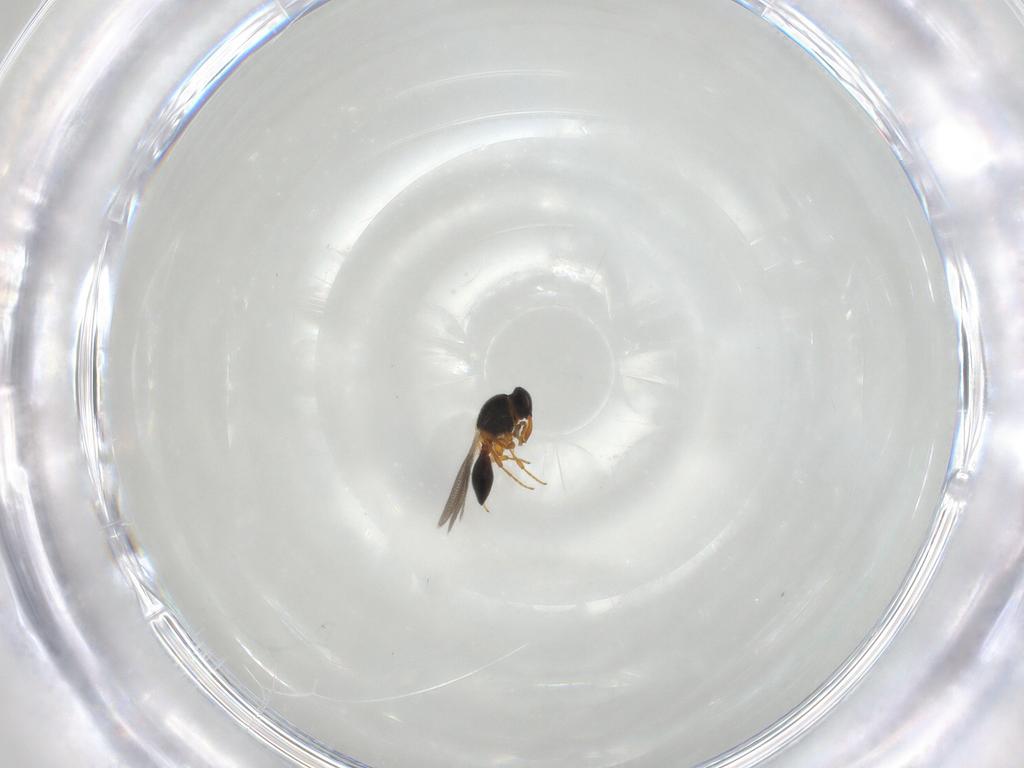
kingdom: Animalia
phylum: Arthropoda
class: Insecta
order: Hymenoptera
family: Platygastridae
